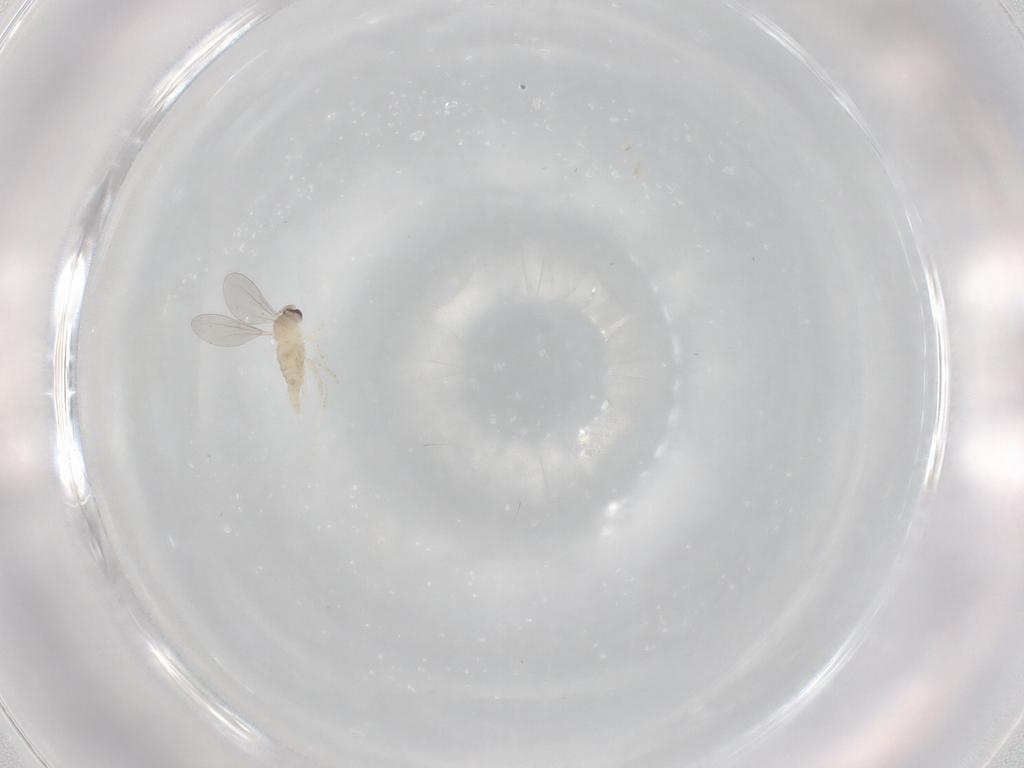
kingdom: Animalia
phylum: Arthropoda
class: Insecta
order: Diptera
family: Cecidomyiidae
